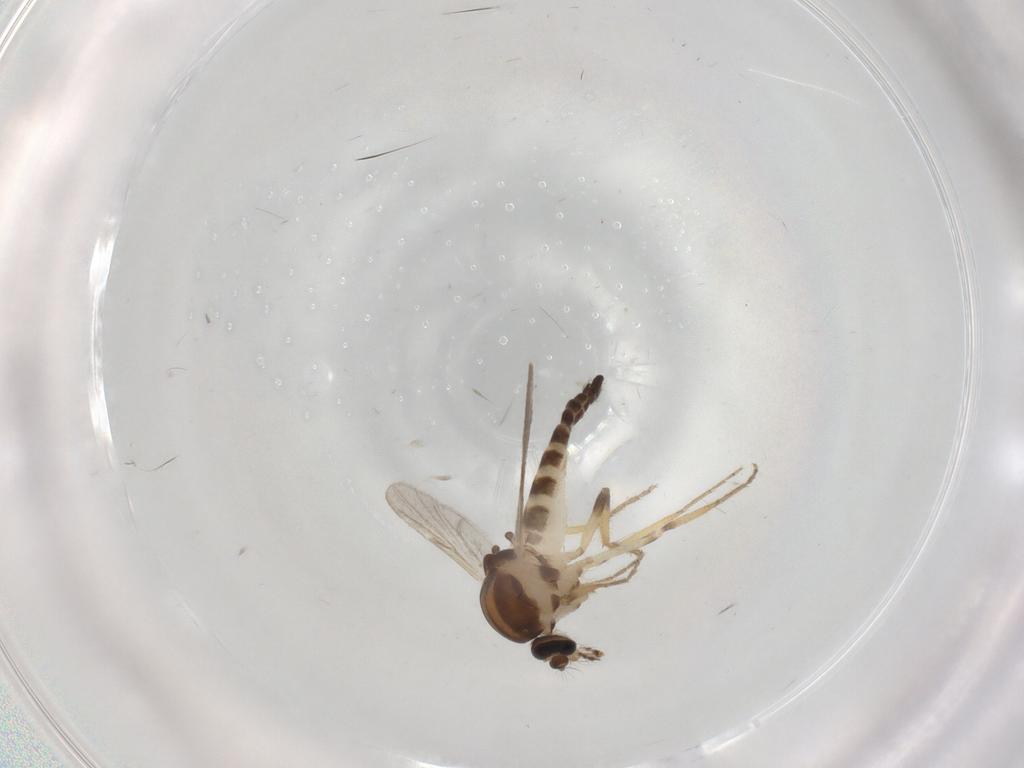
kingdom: Animalia
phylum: Arthropoda
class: Insecta
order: Diptera
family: Ceratopogonidae
